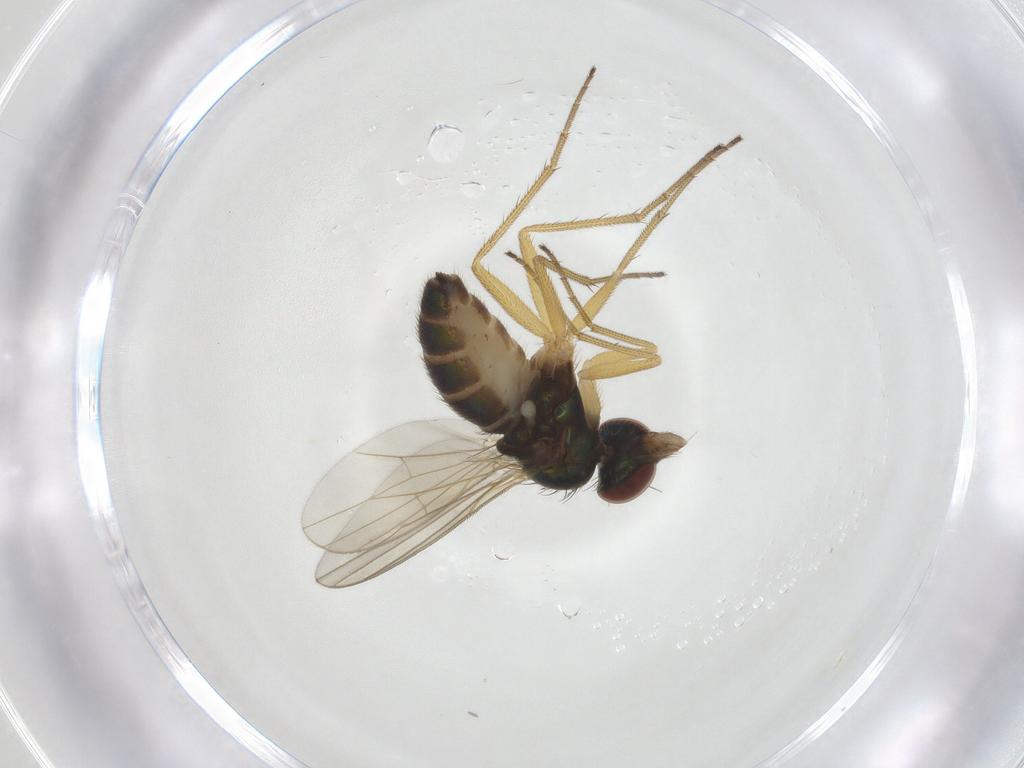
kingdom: Animalia
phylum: Arthropoda
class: Insecta
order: Diptera
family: Dolichopodidae
